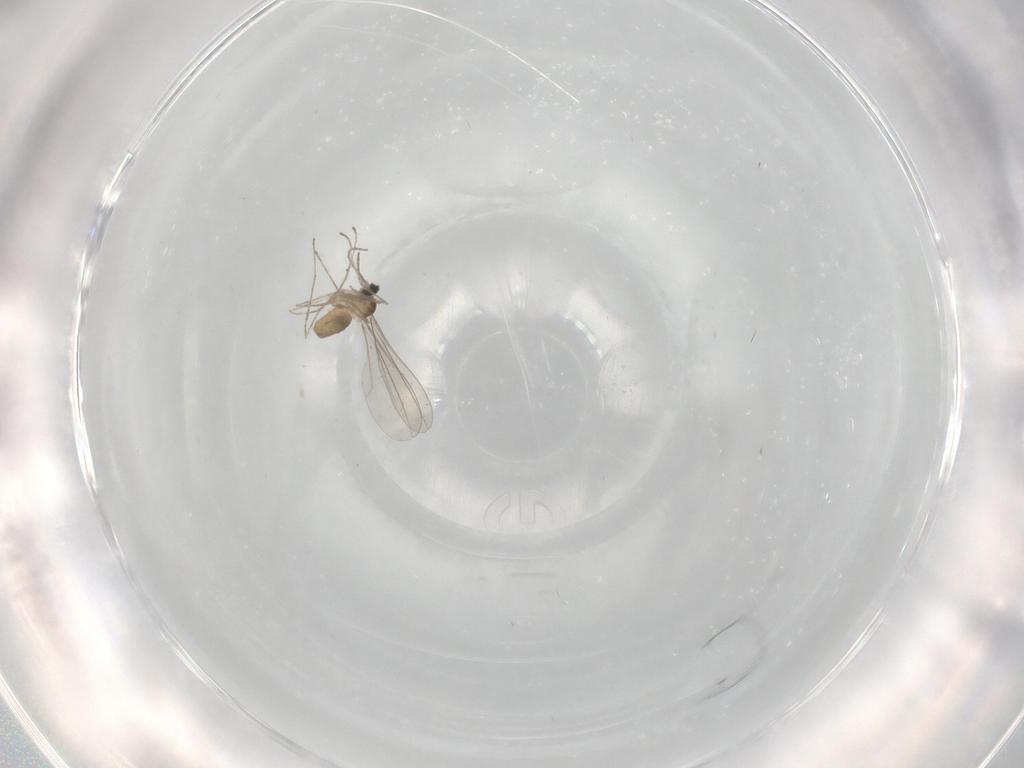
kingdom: Animalia
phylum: Arthropoda
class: Insecta
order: Diptera
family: Cecidomyiidae
